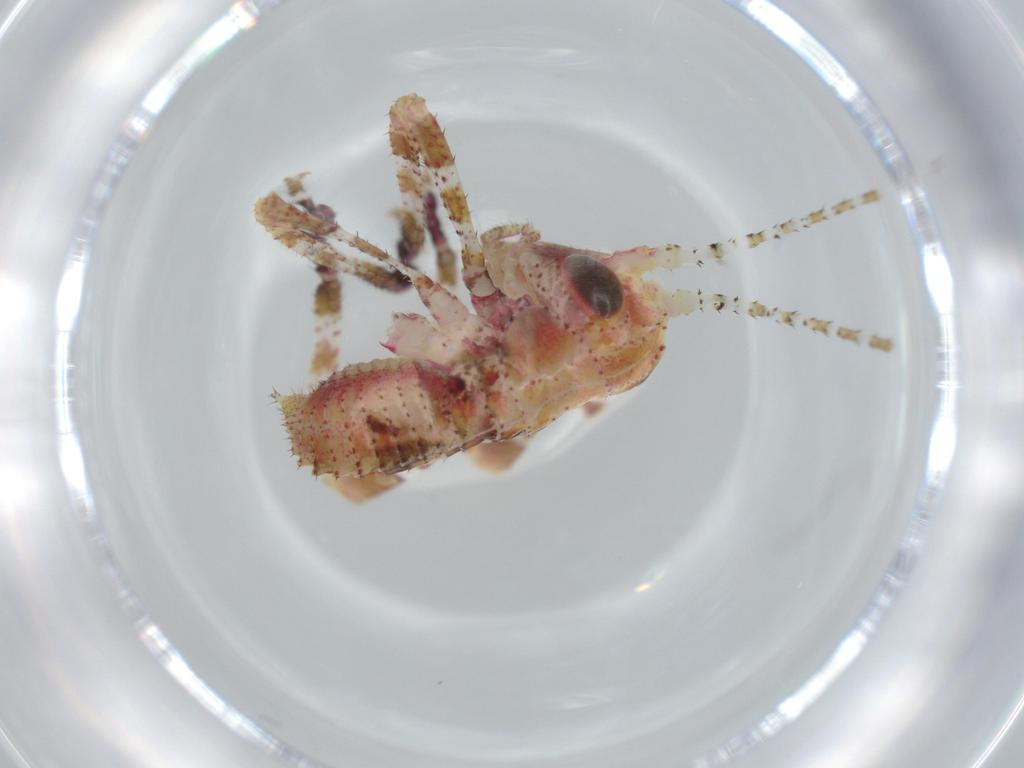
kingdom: Animalia
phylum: Arthropoda
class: Insecta
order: Orthoptera
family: Tettigoniidae
